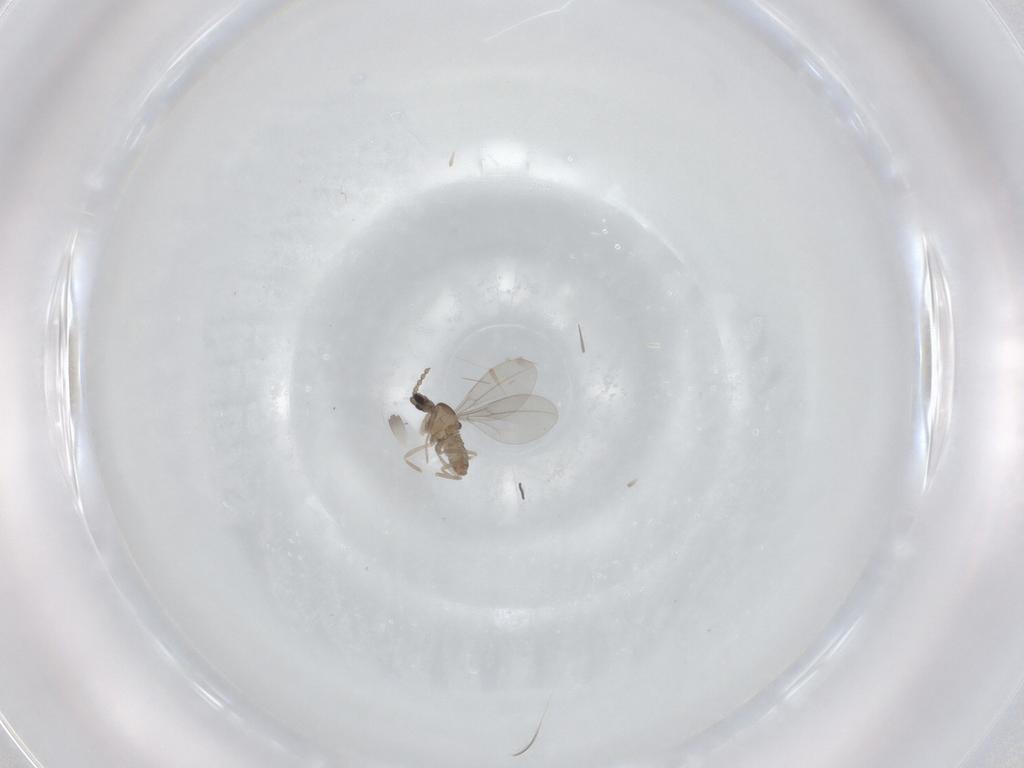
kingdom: Animalia
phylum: Arthropoda
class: Insecta
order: Diptera
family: Cecidomyiidae
